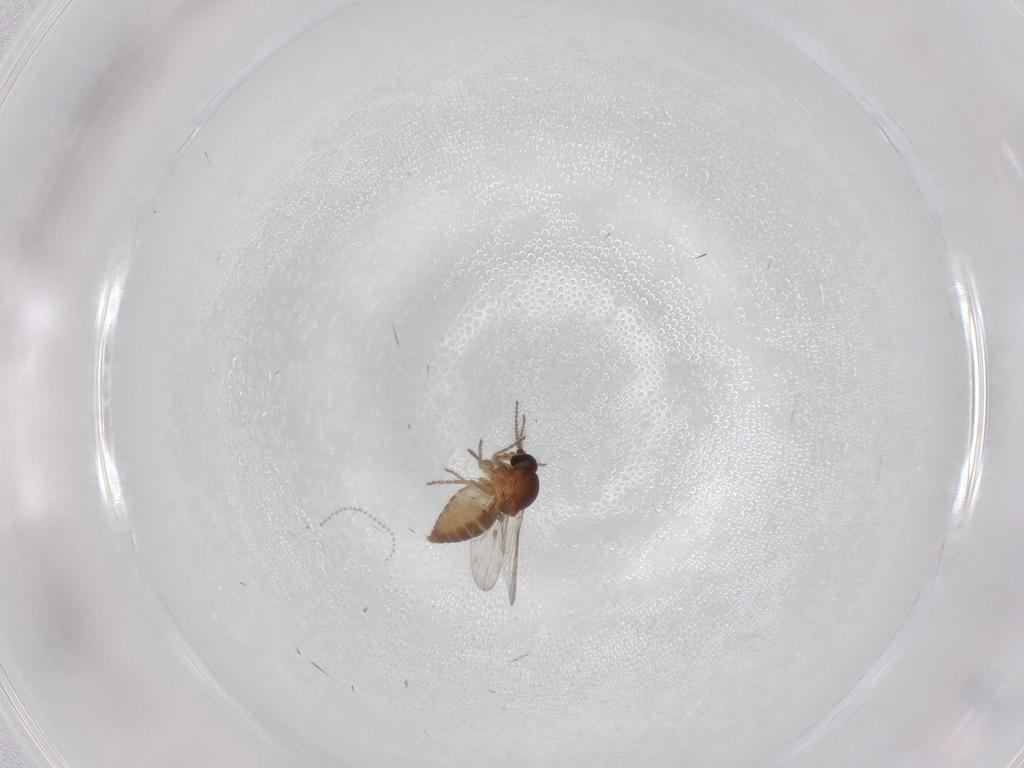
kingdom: Animalia
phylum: Arthropoda
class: Insecta
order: Diptera
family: Ceratopogonidae
